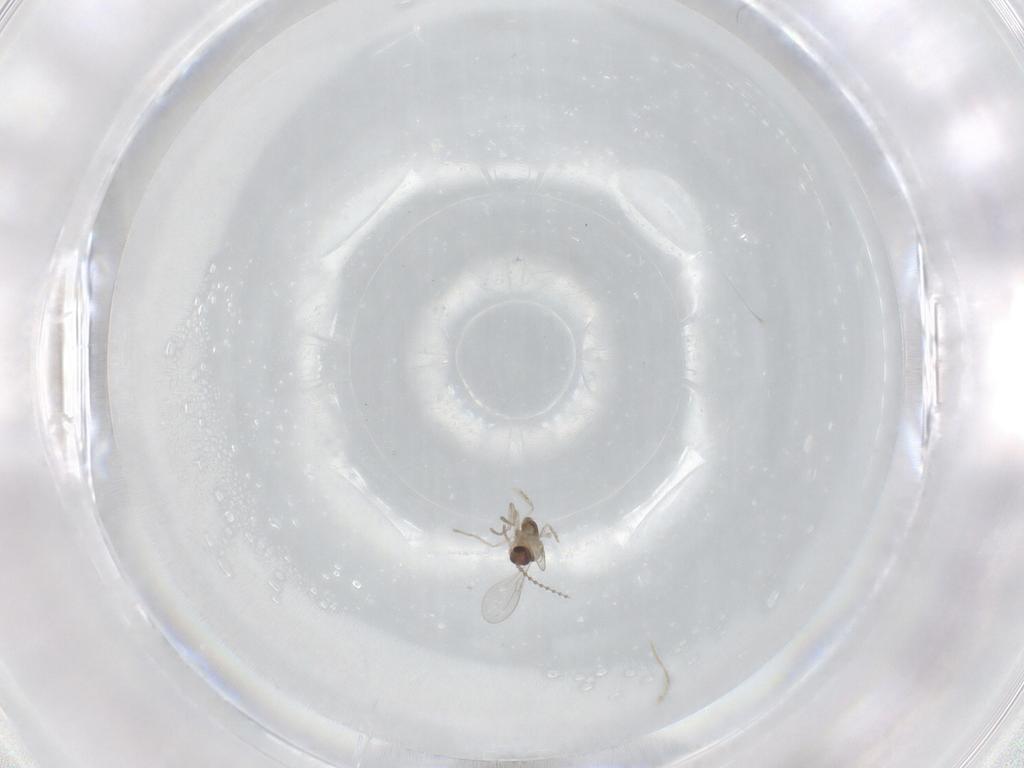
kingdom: Animalia
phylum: Arthropoda
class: Insecta
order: Diptera
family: Cecidomyiidae
